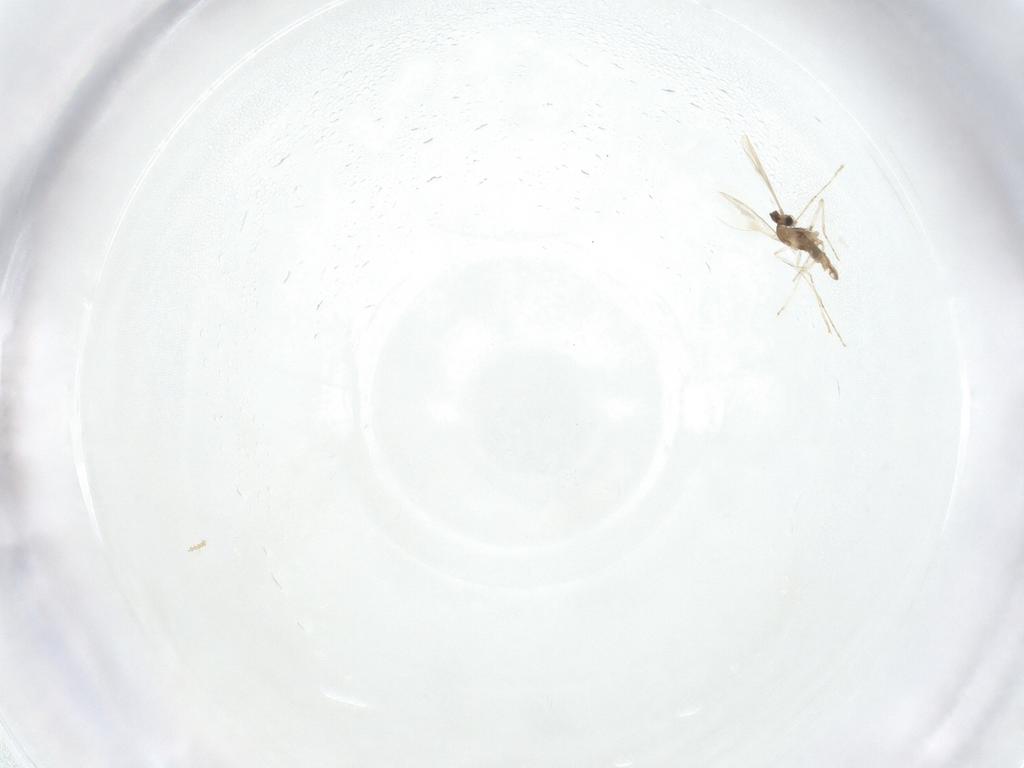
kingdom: Animalia
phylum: Arthropoda
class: Insecta
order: Diptera
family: Cecidomyiidae
